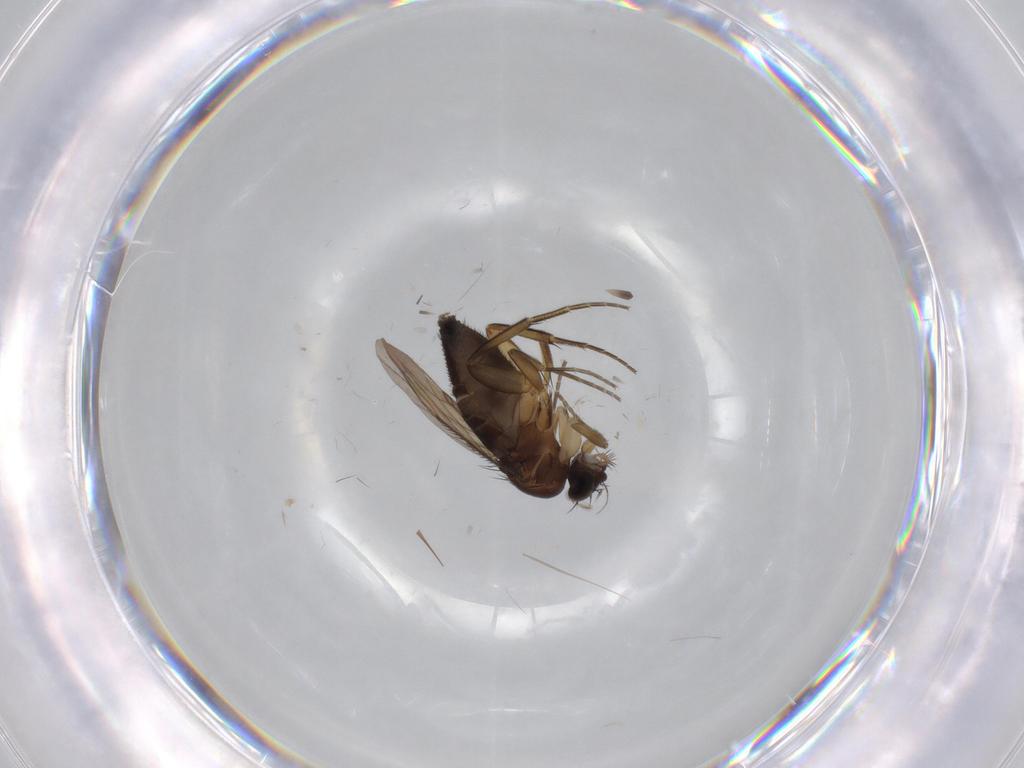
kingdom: Animalia
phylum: Arthropoda
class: Insecta
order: Diptera
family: Phoridae
